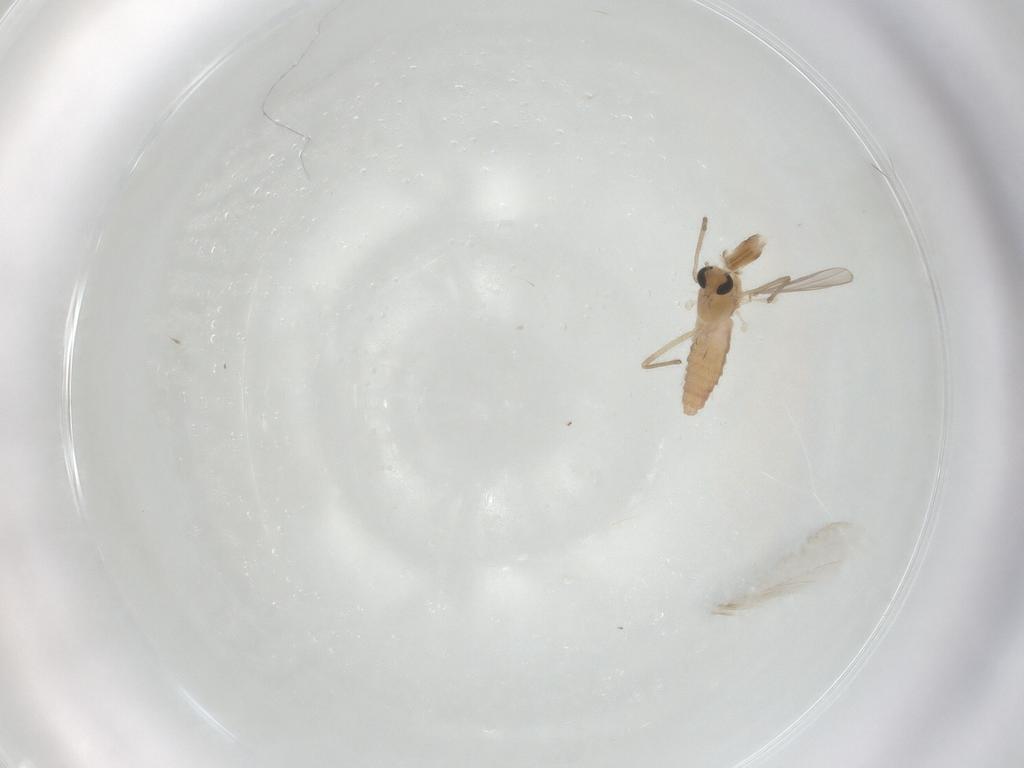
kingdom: Animalia
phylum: Arthropoda
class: Insecta
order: Diptera
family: Chironomidae
